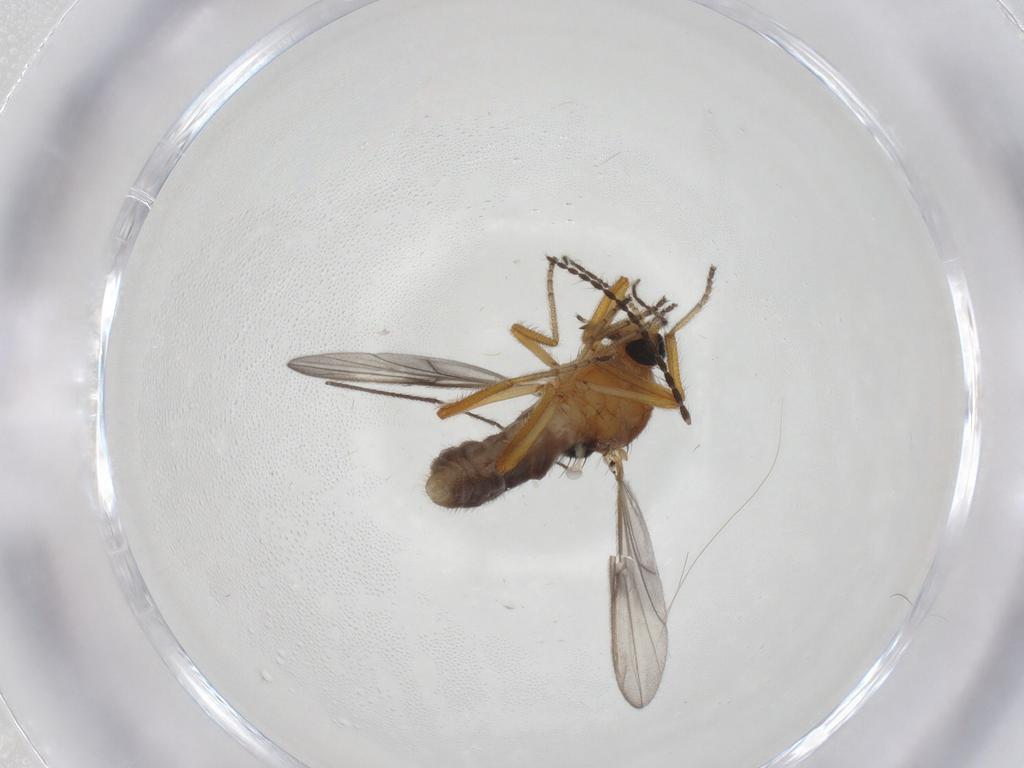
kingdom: Animalia
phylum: Arthropoda
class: Insecta
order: Diptera
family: Ceratopogonidae
